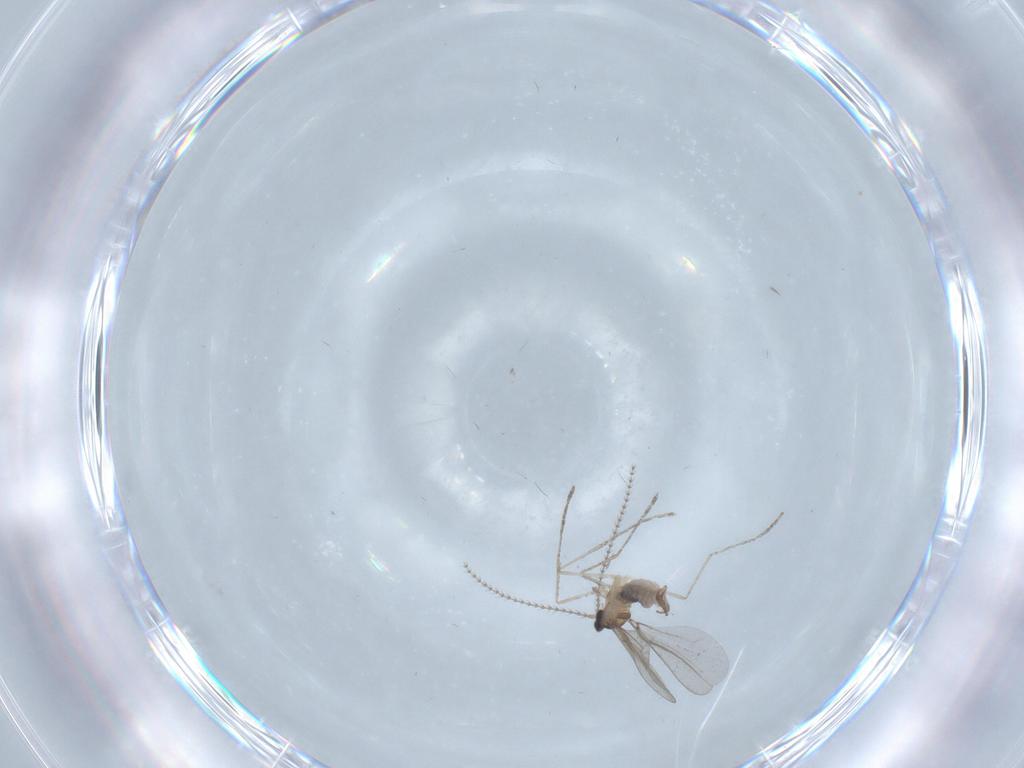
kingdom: Animalia
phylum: Arthropoda
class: Insecta
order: Diptera
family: Cecidomyiidae
